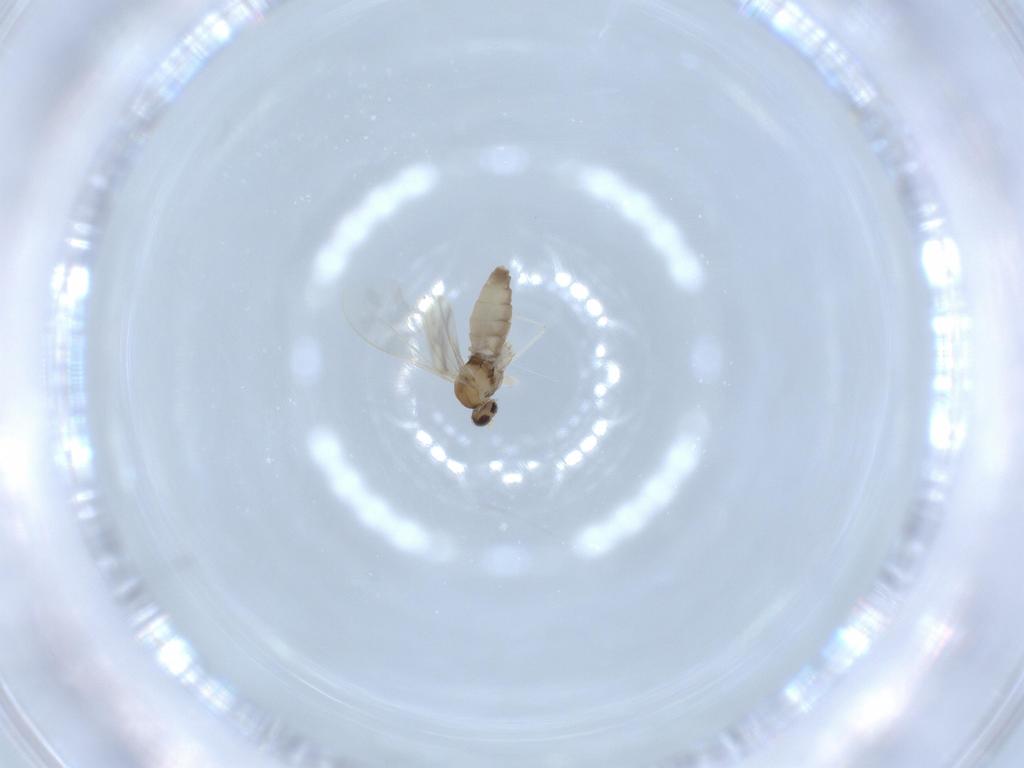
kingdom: Animalia
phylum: Arthropoda
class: Insecta
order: Diptera
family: Cecidomyiidae
